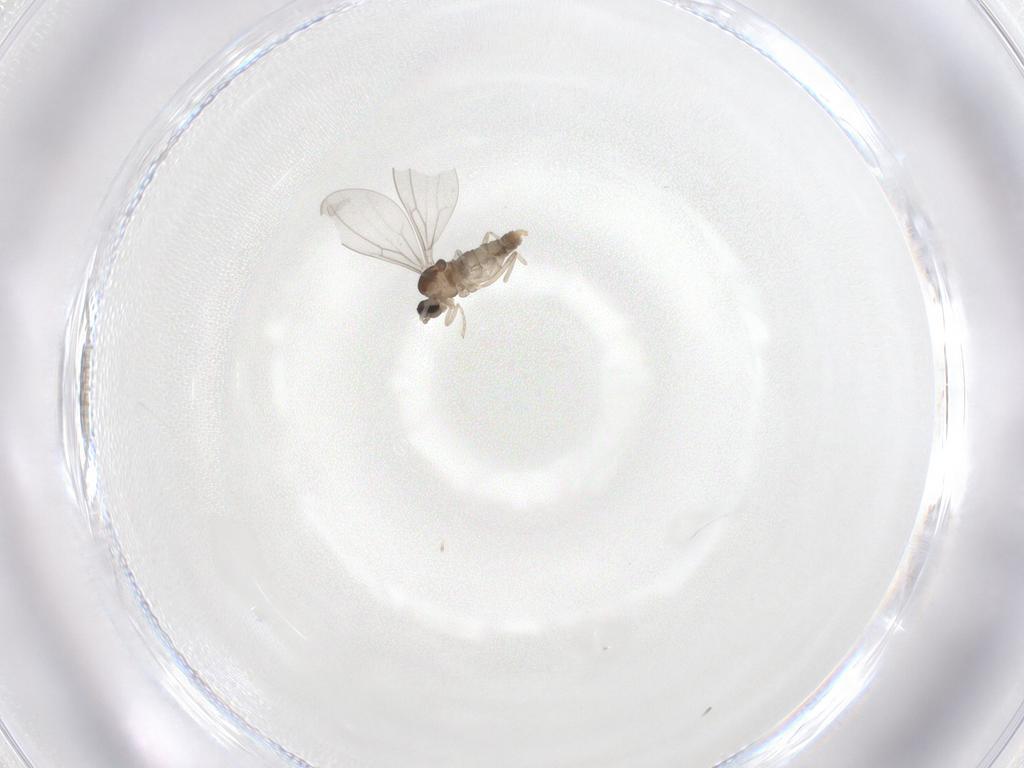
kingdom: Animalia
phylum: Arthropoda
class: Insecta
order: Diptera
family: Cecidomyiidae
